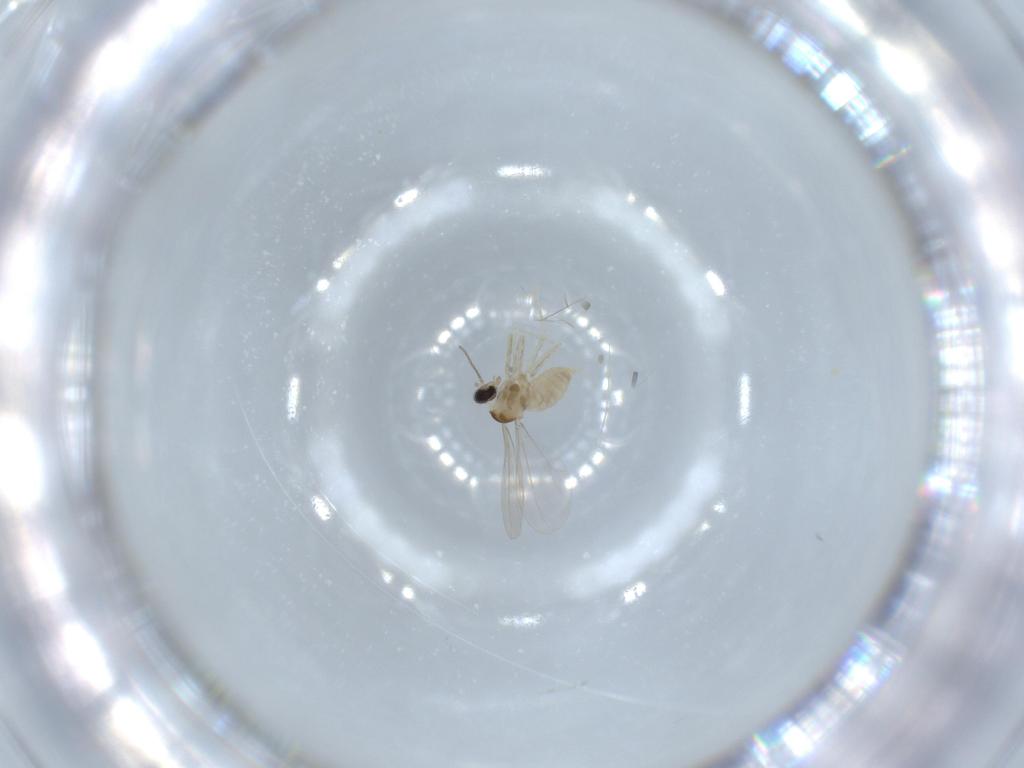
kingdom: Animalia
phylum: Arthropoda
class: Insecta
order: Diptera
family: Cecidomyiidae
